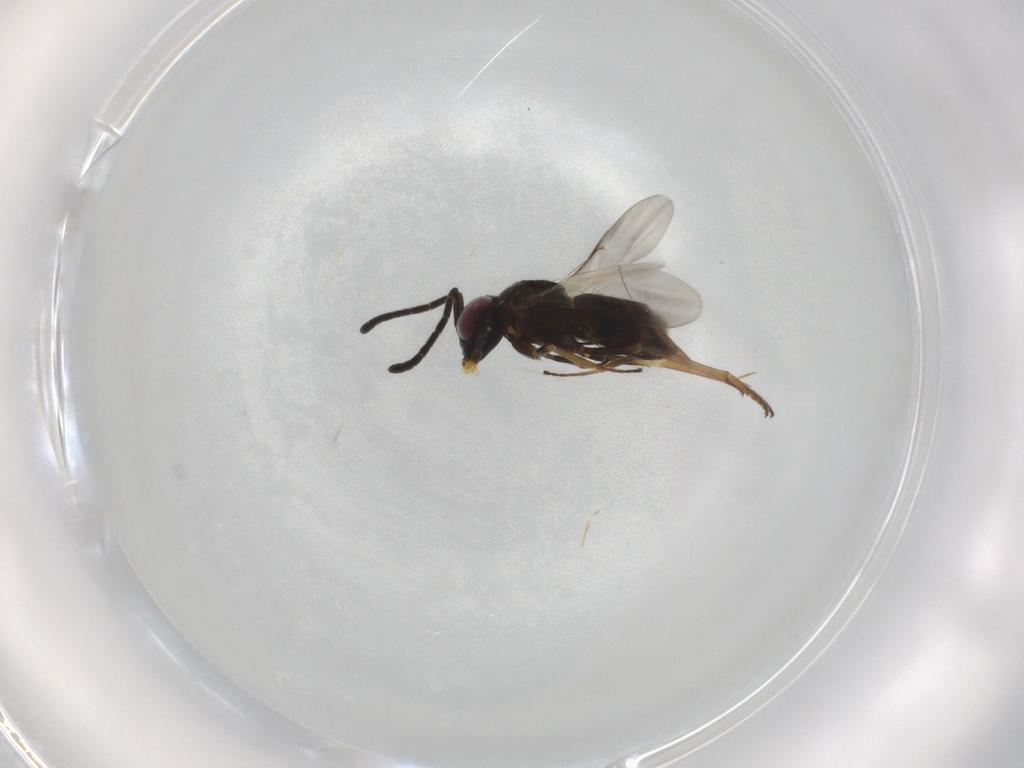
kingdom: Animalia
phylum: Arthropoda
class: Insecta
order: Hymenoptera
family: Encyrtidae
